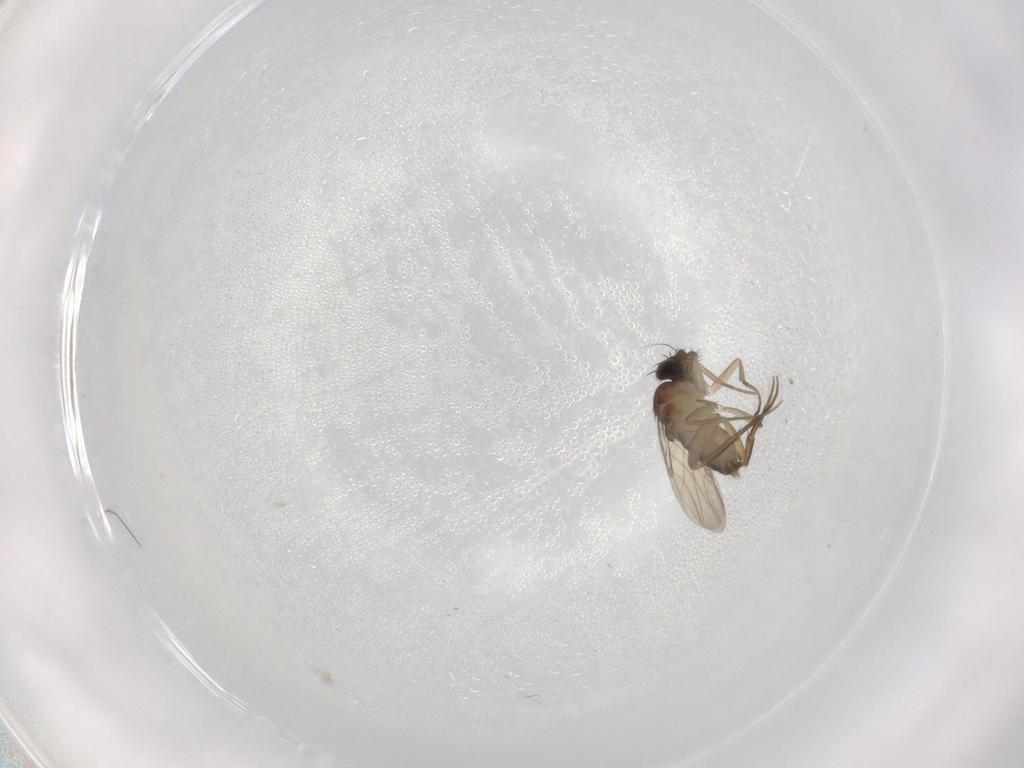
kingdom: Animalia
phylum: Arthropoda
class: Insecta
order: Diptera
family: Phoridae
